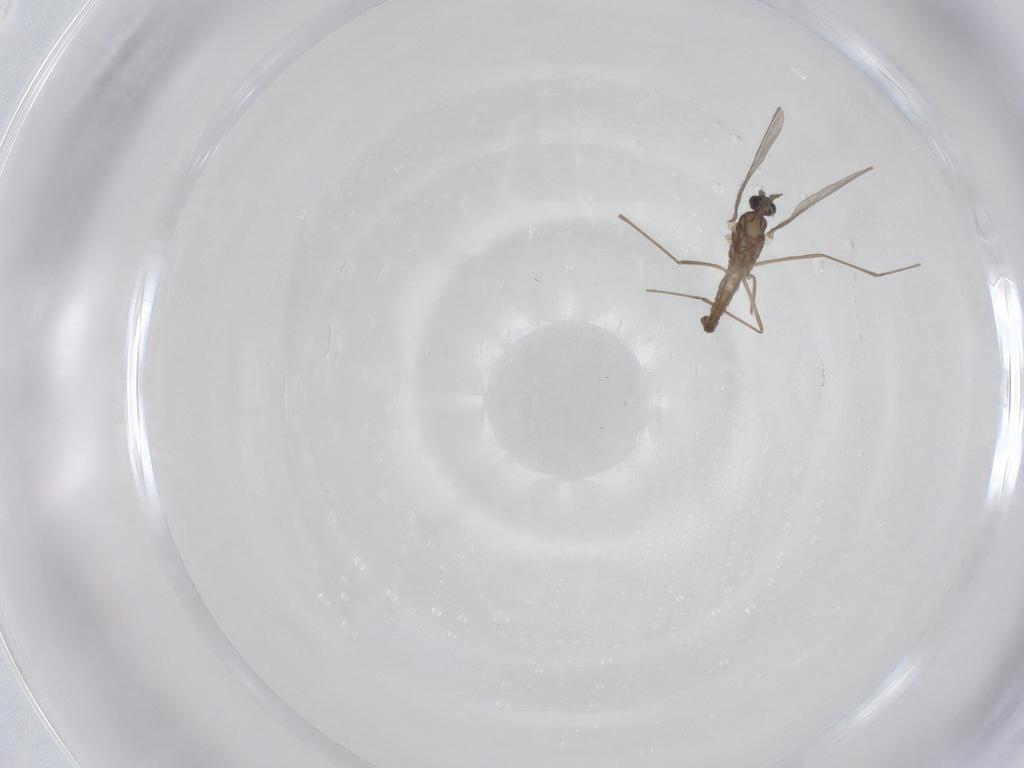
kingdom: Animalia
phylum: Arthropoda
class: Insecta
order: Diptera
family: Cecidomyiidae
